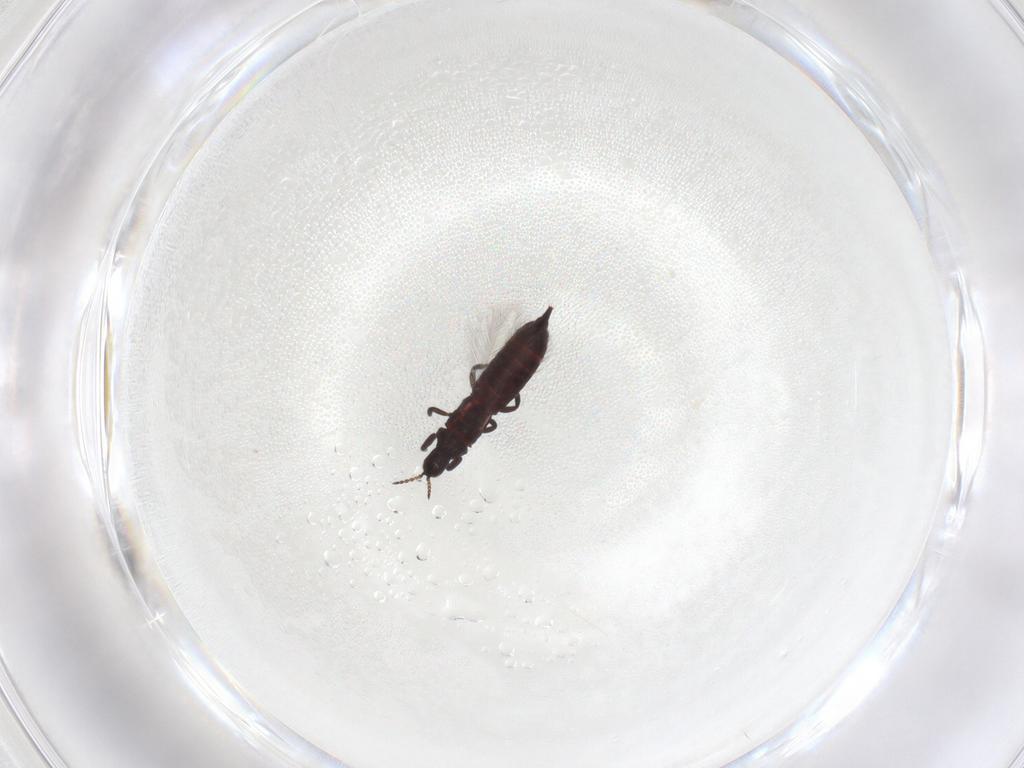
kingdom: Animalia
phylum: Arthropoda
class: Insecta
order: Thysanoptera
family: Phlaeothripidae
